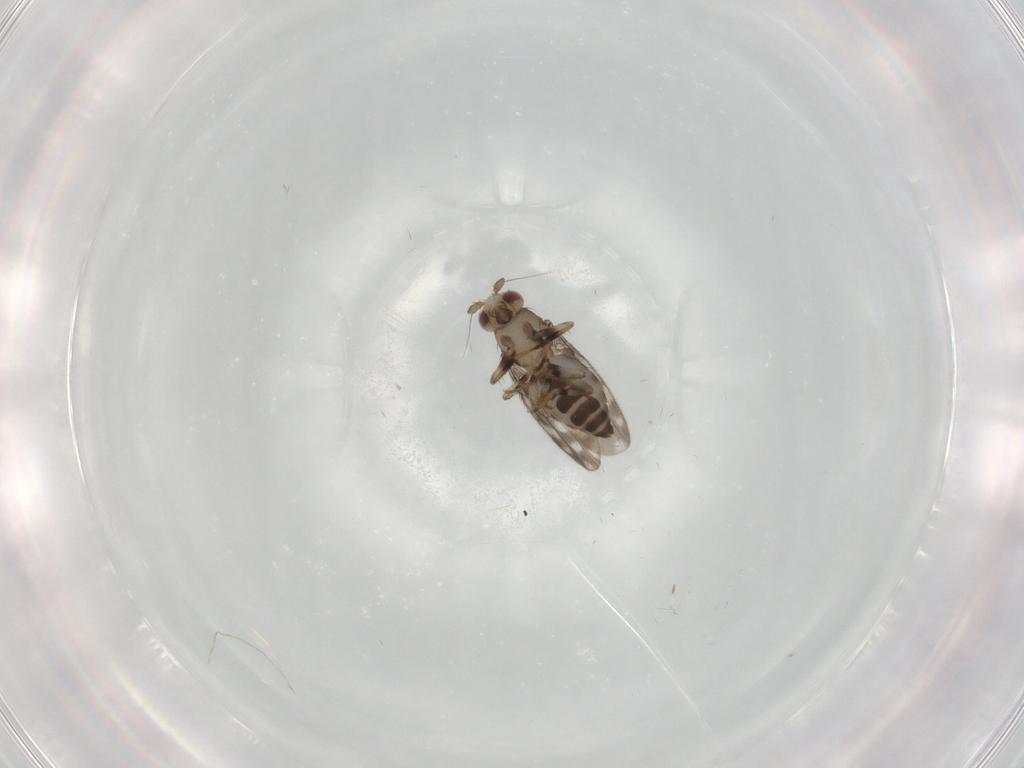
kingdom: Animalia
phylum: Arthropoda
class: Insecta
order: Diptera
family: Cecidomyiidae
